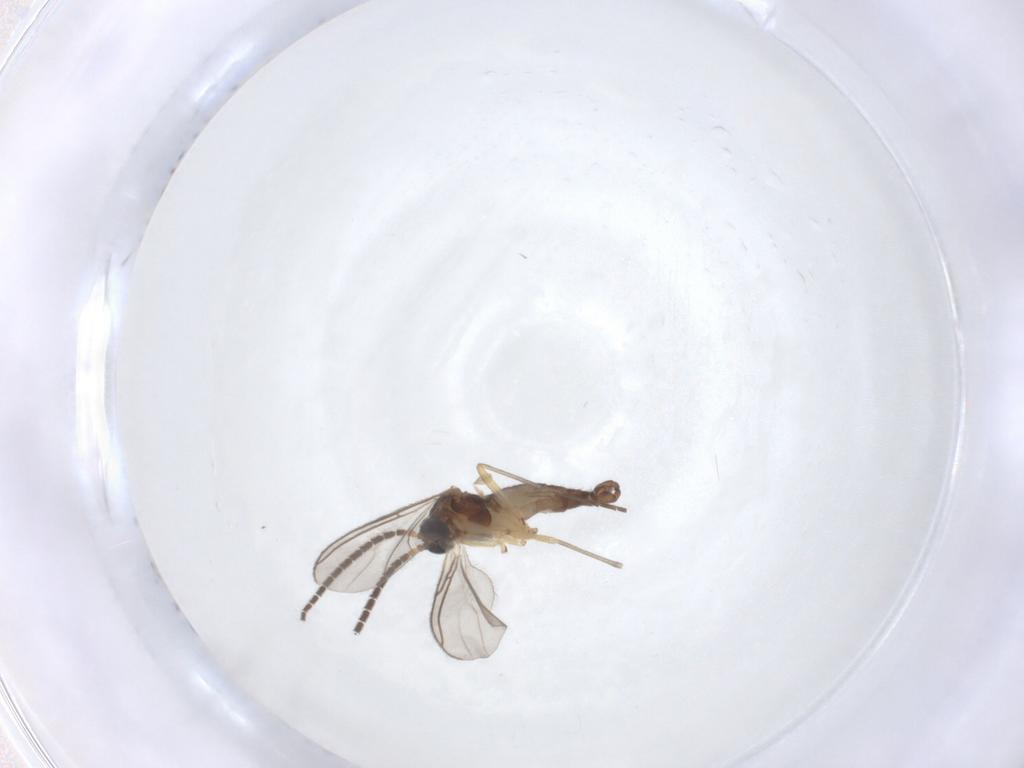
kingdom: Animalia
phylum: Arthropoda
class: Insecta
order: Diptera
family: Sciaridae
